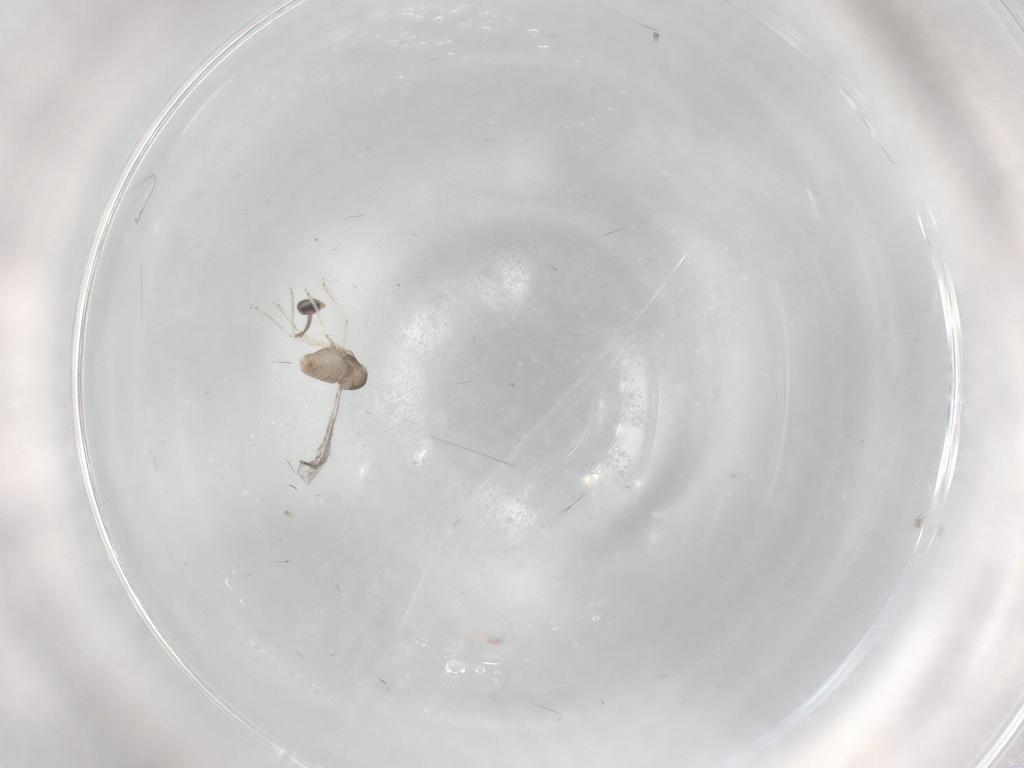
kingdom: Animalia
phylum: Arthropoda
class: Insecta
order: Diptera
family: Cecidomyiidae
